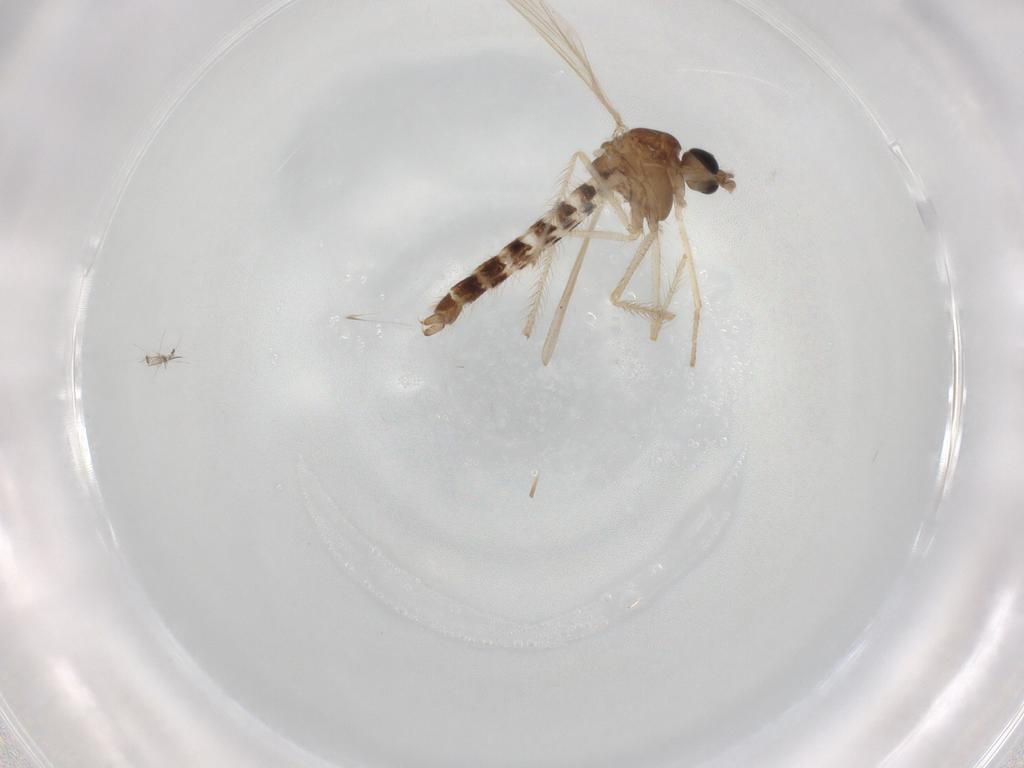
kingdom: Animalia
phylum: Arthropoda
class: Insecta
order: Diptera
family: Chironomidae
